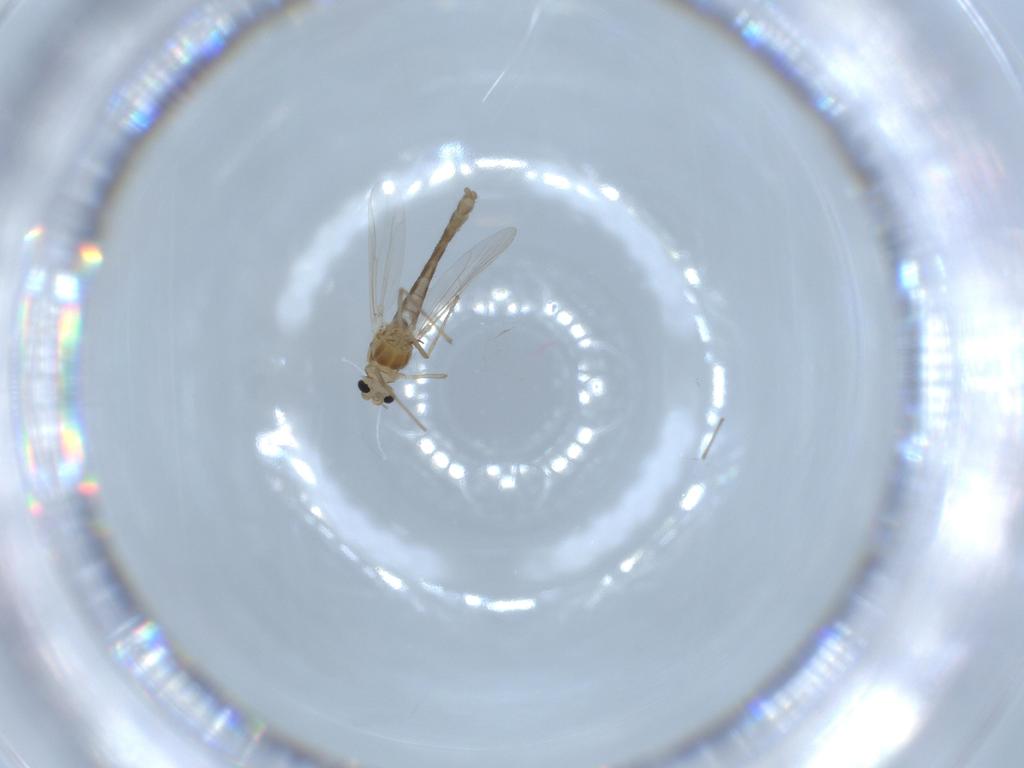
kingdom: Animalia
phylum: Arthropoda
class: Insecta
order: Diptera
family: Chironomidae
